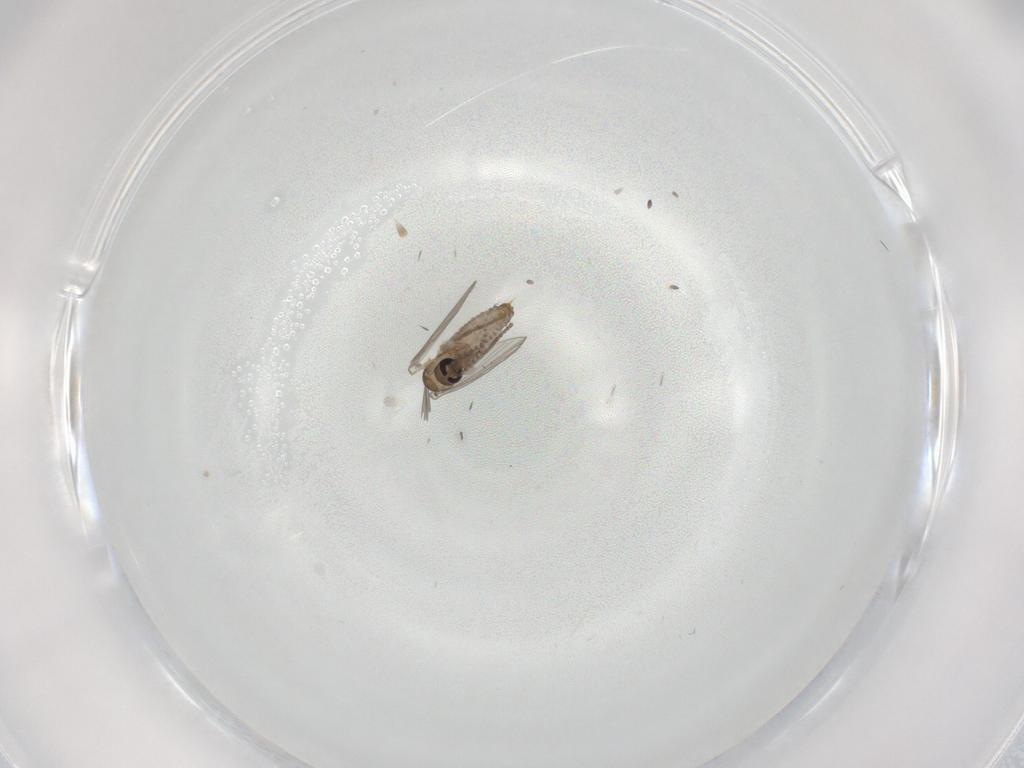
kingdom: Animalia
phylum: Arthropoda
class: Insecta
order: Diptera
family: Psychodidae
